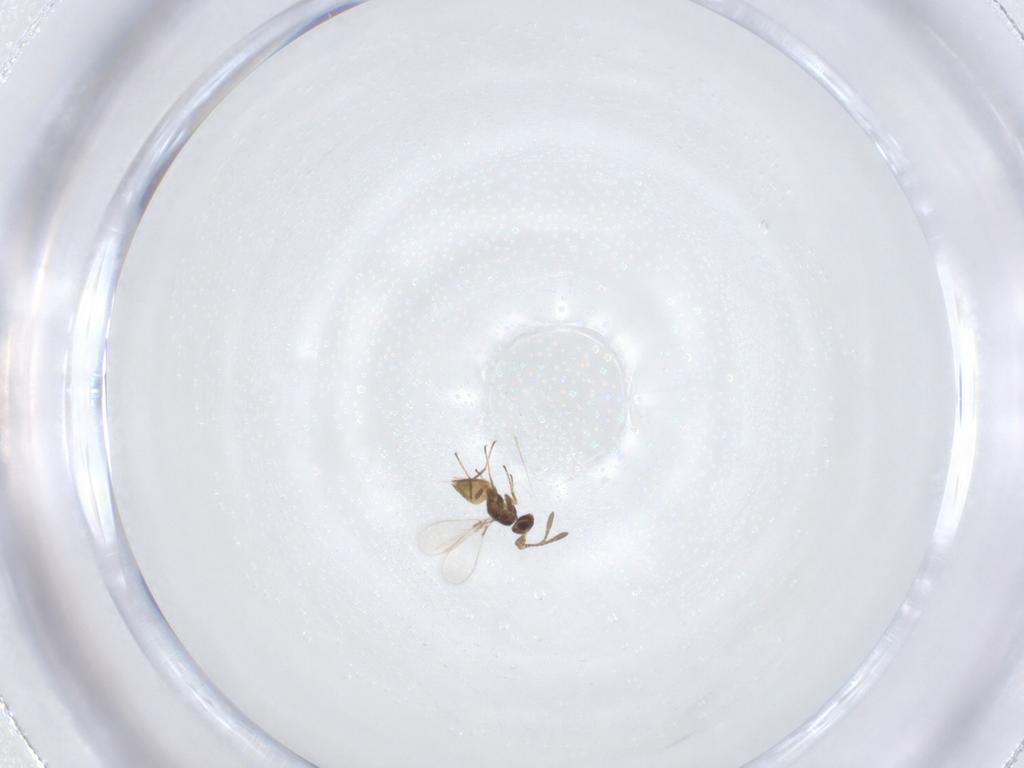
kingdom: Animalia
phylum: Arthropoda
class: Insecta
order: Hymenoptera
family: Mymaridae
